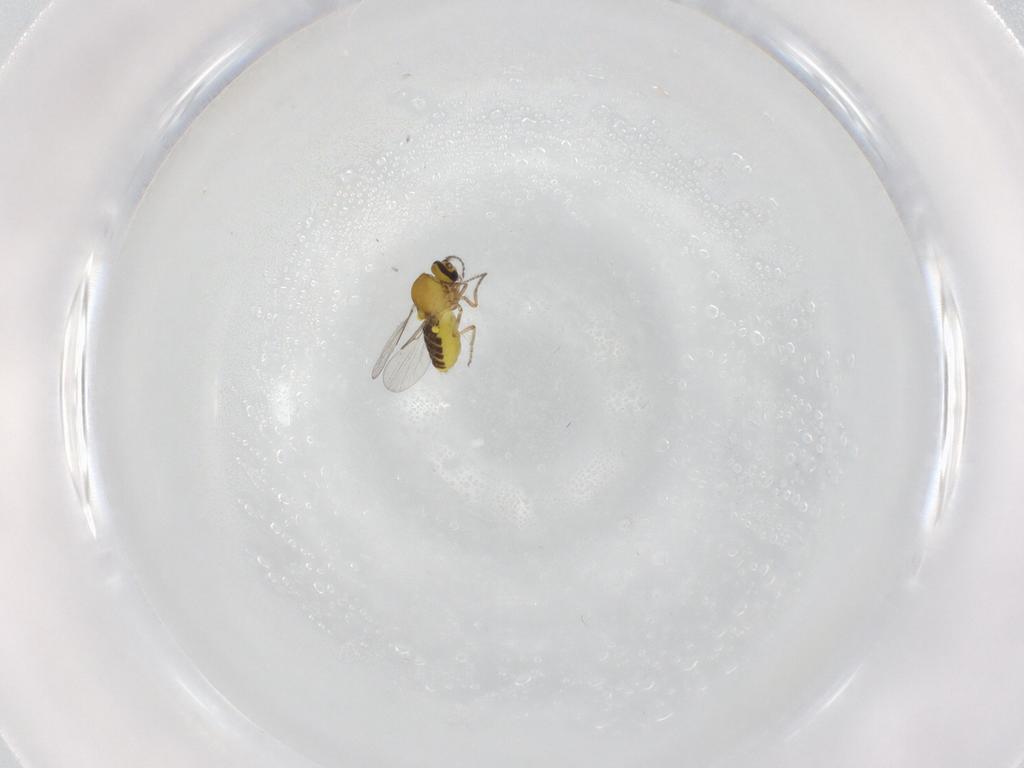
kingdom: Animalia
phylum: Arthropoda
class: Insecta
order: Diptera
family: Ceratopogonidae
